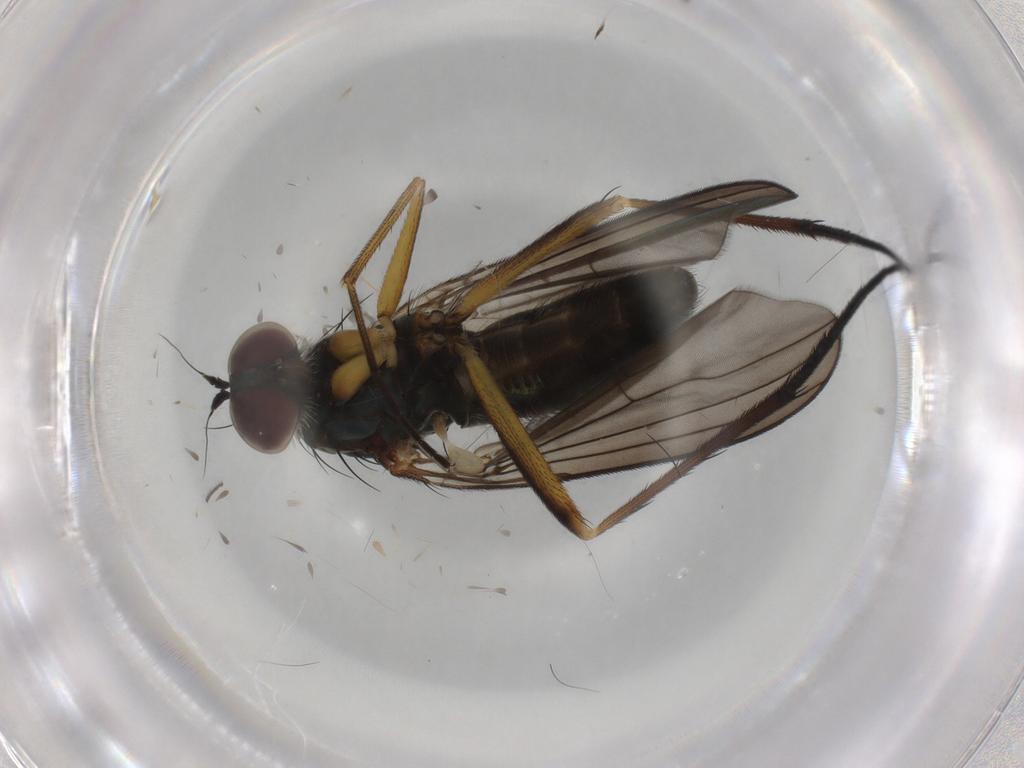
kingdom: Animalia
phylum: Arthropoda
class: Insecta
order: Diptera
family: Dolichopodidae
